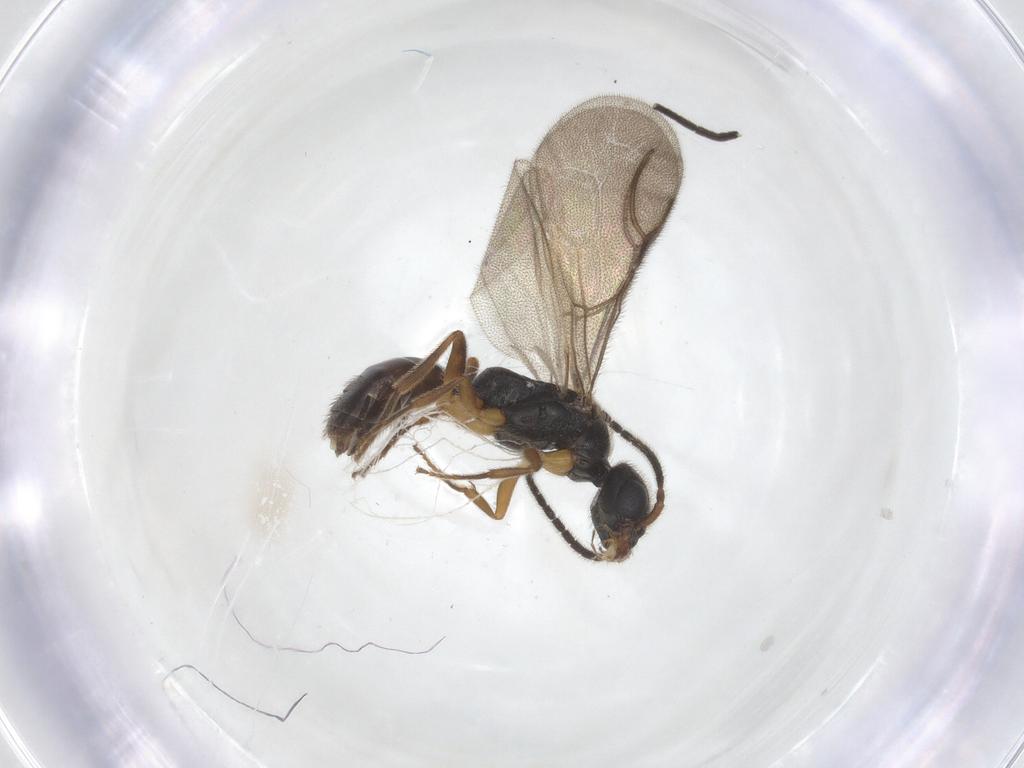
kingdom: Animalia
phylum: Arthropoda
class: Insecta
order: Hymenoptera
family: Bethylidae
